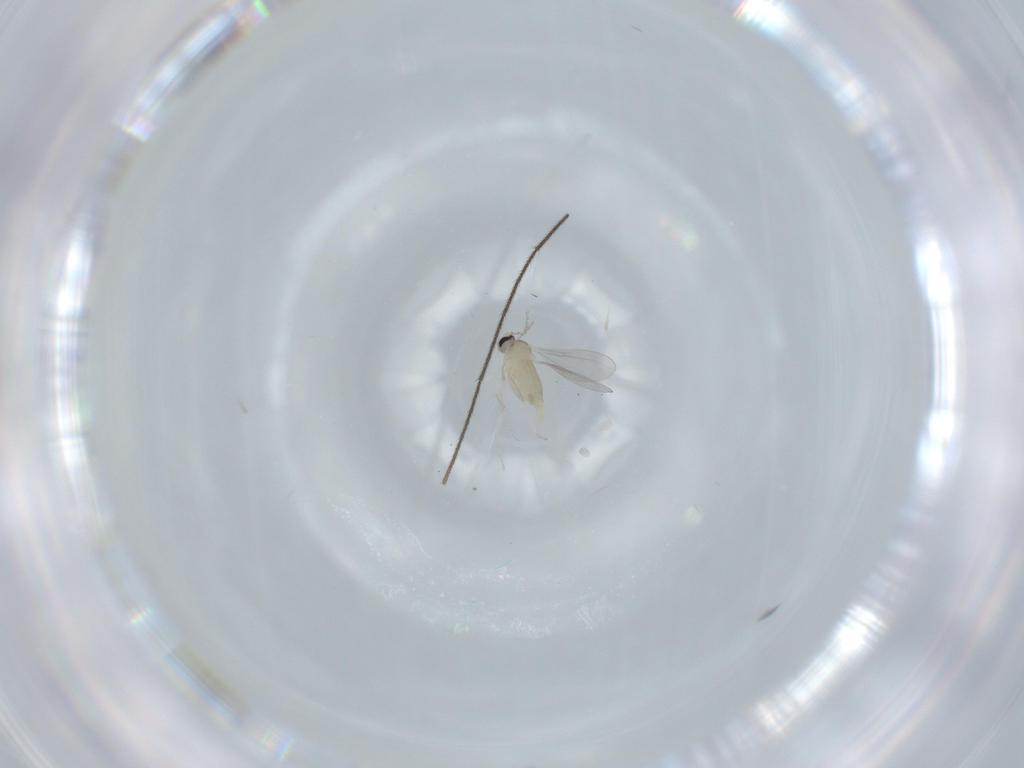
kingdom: Animalia
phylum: Arthropoda
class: Insecta
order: Diptera
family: Cecidomyiidae
